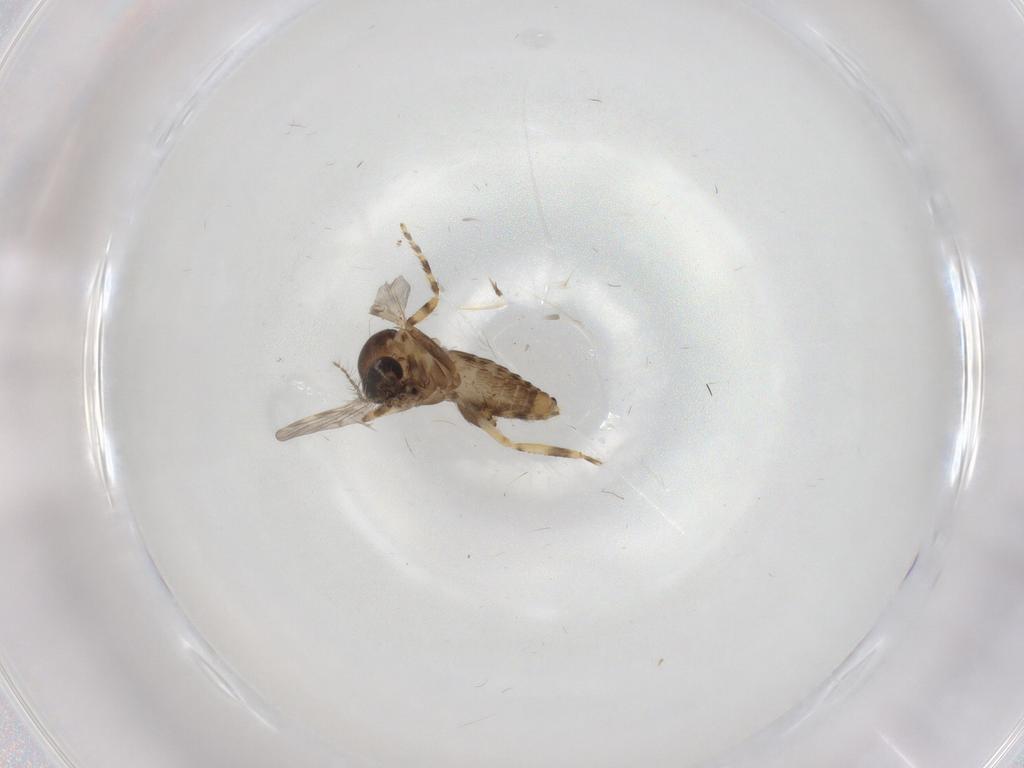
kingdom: Animalia
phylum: Arthropoda
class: Insecta
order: Diptera
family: Ceratopogonidae
